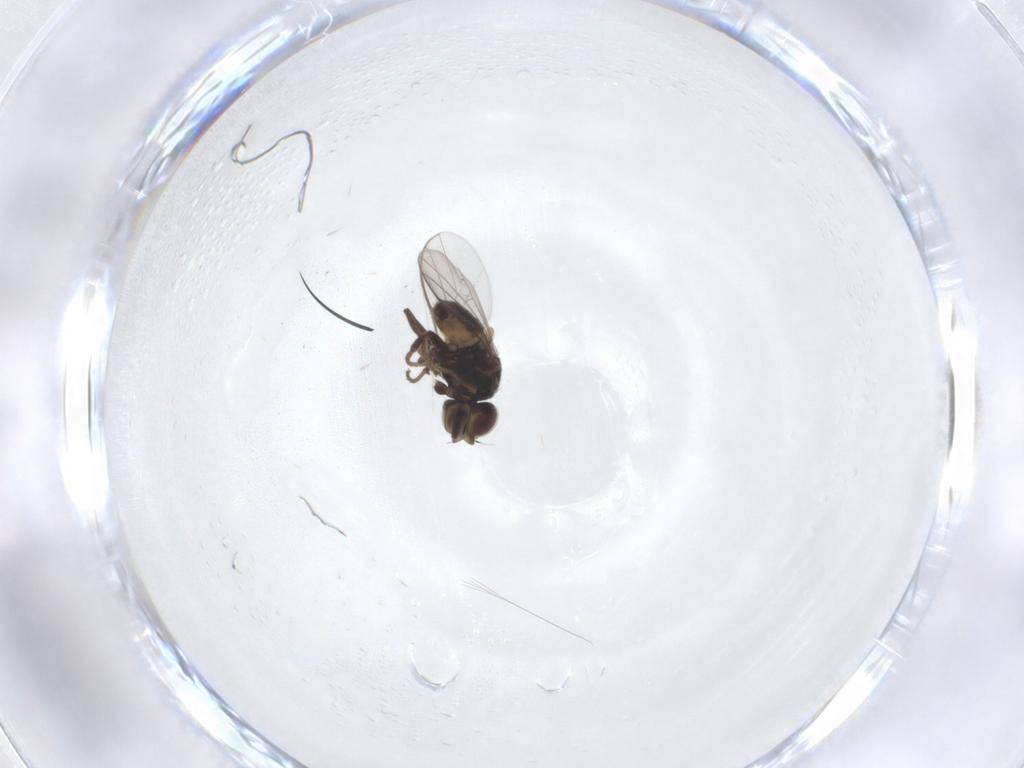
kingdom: Animalia
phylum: Arthropoda
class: Insecta
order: Diptera
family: Chloropidae
